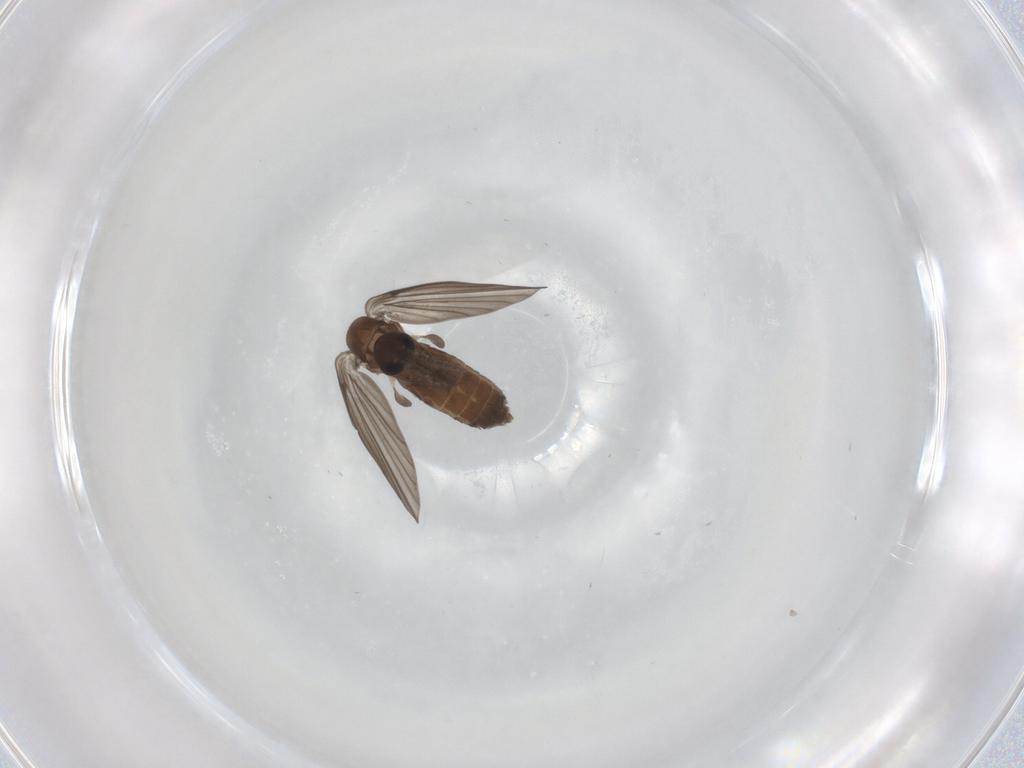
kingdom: Animalia
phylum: Arthropoda
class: Insecta
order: Diptera
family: Psychodidae
